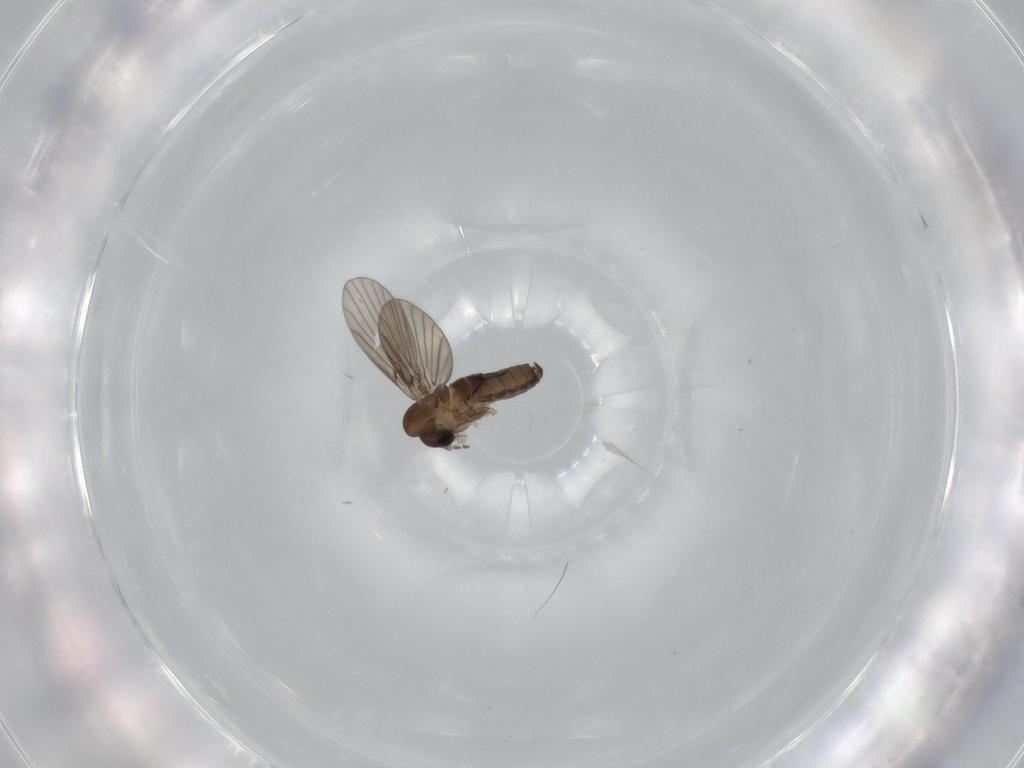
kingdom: Animalia
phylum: Arthropoda
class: Insecta
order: Diptera
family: Psychodidae
